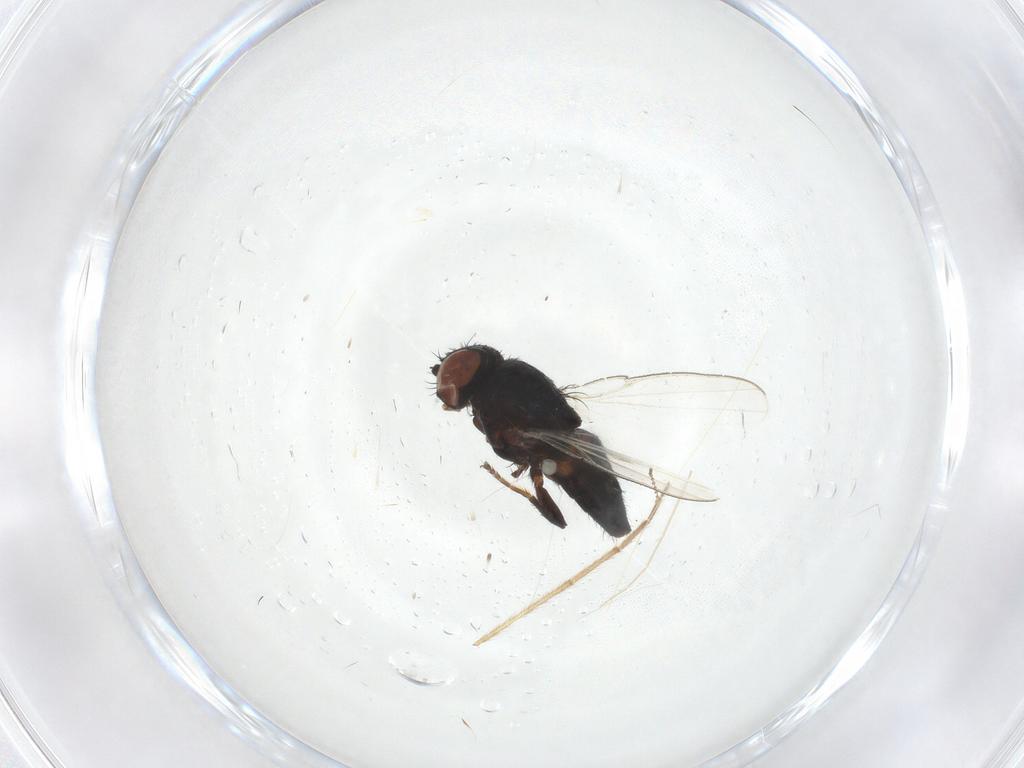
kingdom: Animalia
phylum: Arthropoda
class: Insecta
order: Diptera
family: Milichiidae
